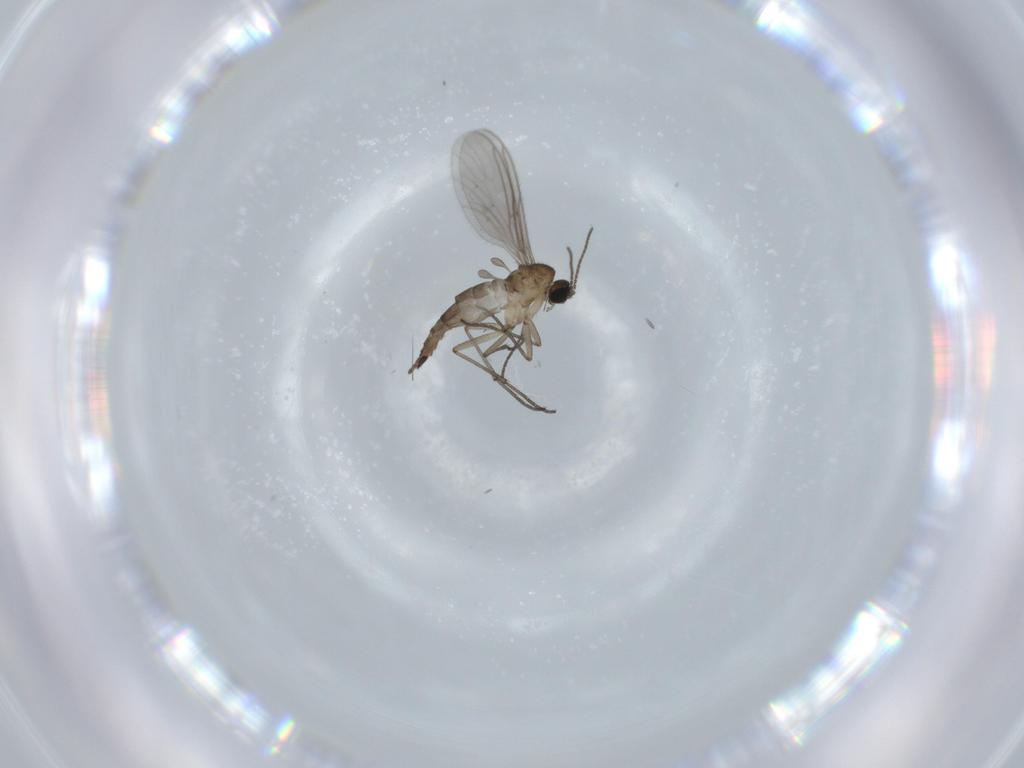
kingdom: Animalia
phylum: Arthropoda
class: Insecta
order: Diptera
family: Sciaridae
